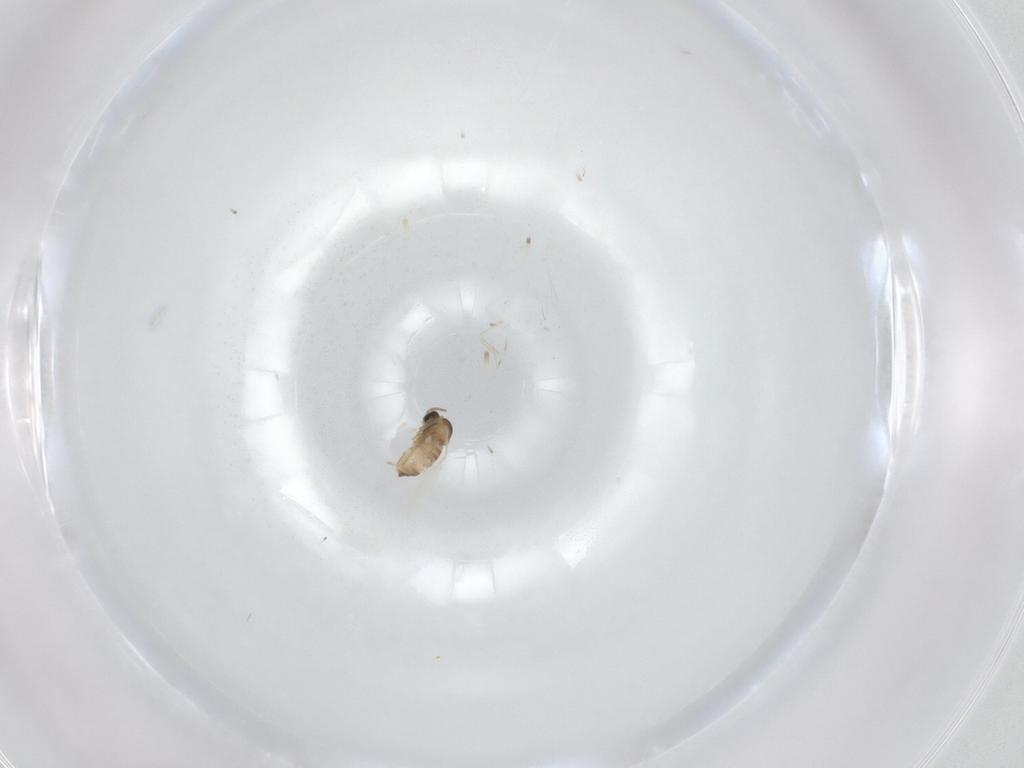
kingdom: Animalia
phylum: Arthropoda
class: Insecta
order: Diptera
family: Cecidomyiidae
